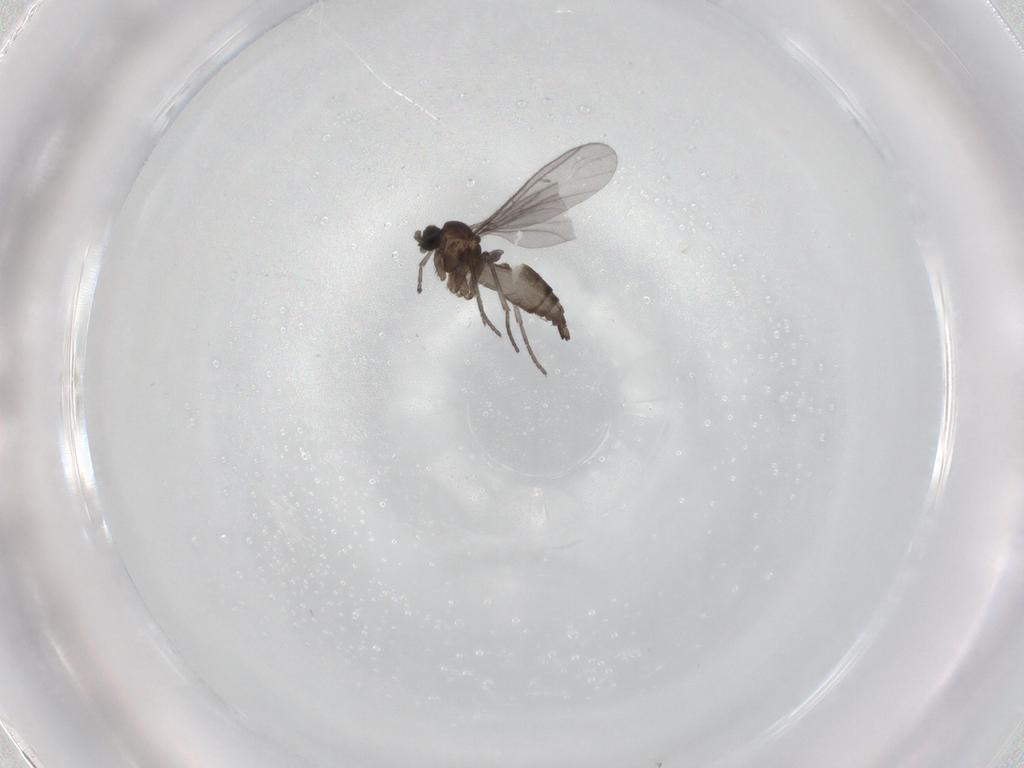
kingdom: Animalia
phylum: Arthropoda
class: Insecta
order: Diptera
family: Sciaridae
